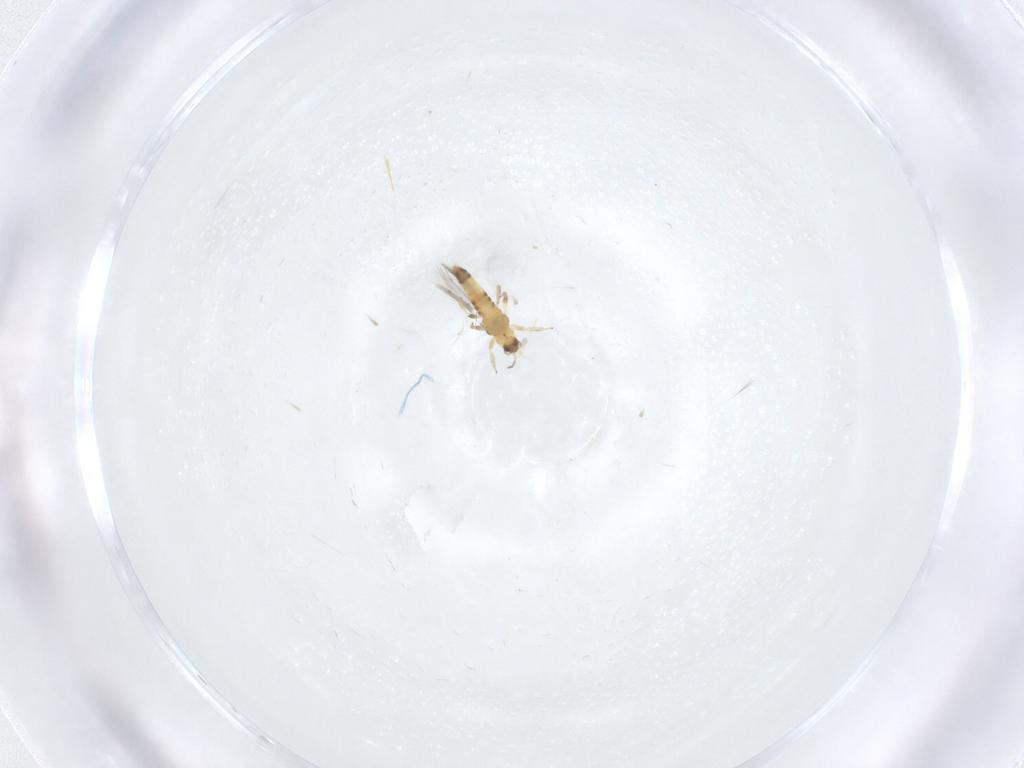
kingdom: Animalia
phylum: Arthropoda
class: Insecta
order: Thysanoptera
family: Thripidae
